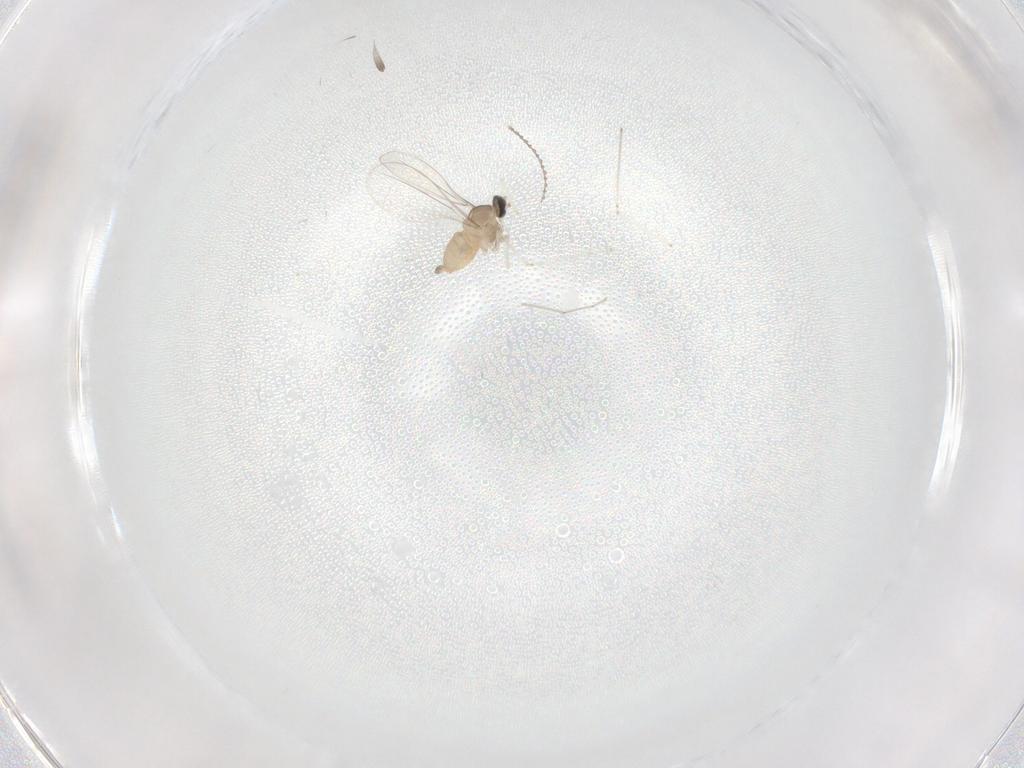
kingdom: Animalia
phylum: Arthropoda
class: Insecta
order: Diptera
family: Cecidomyiidae
